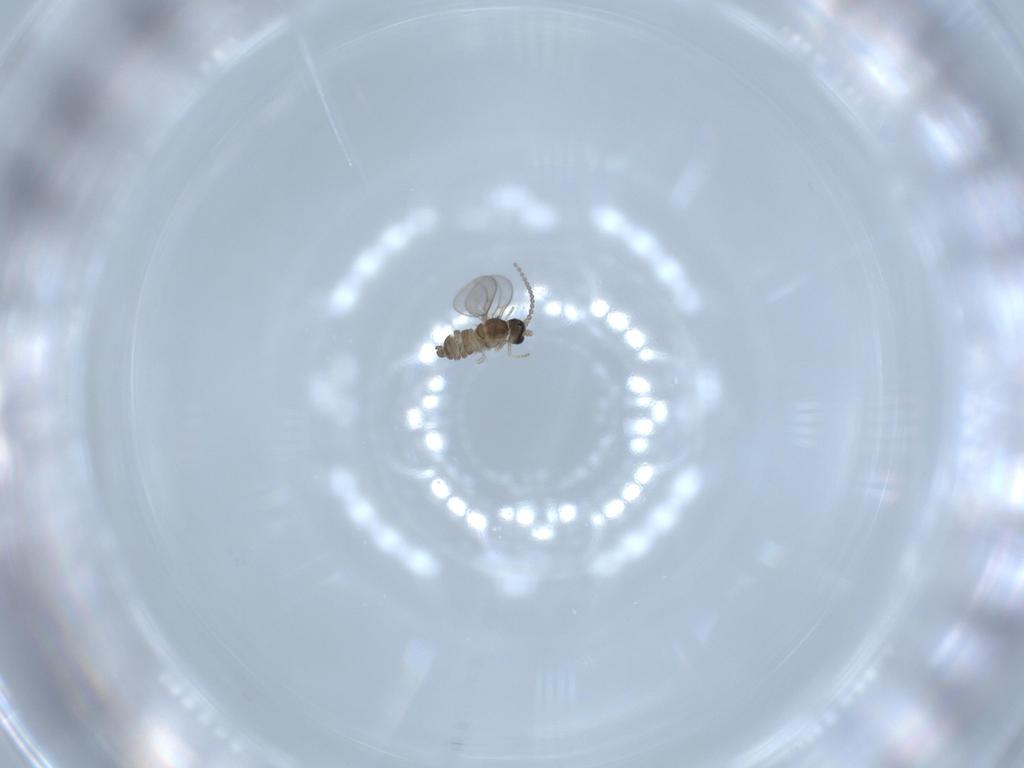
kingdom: Animalia
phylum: Arthropoda
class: Insecta
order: Diptera
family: Cecidomyiidae
